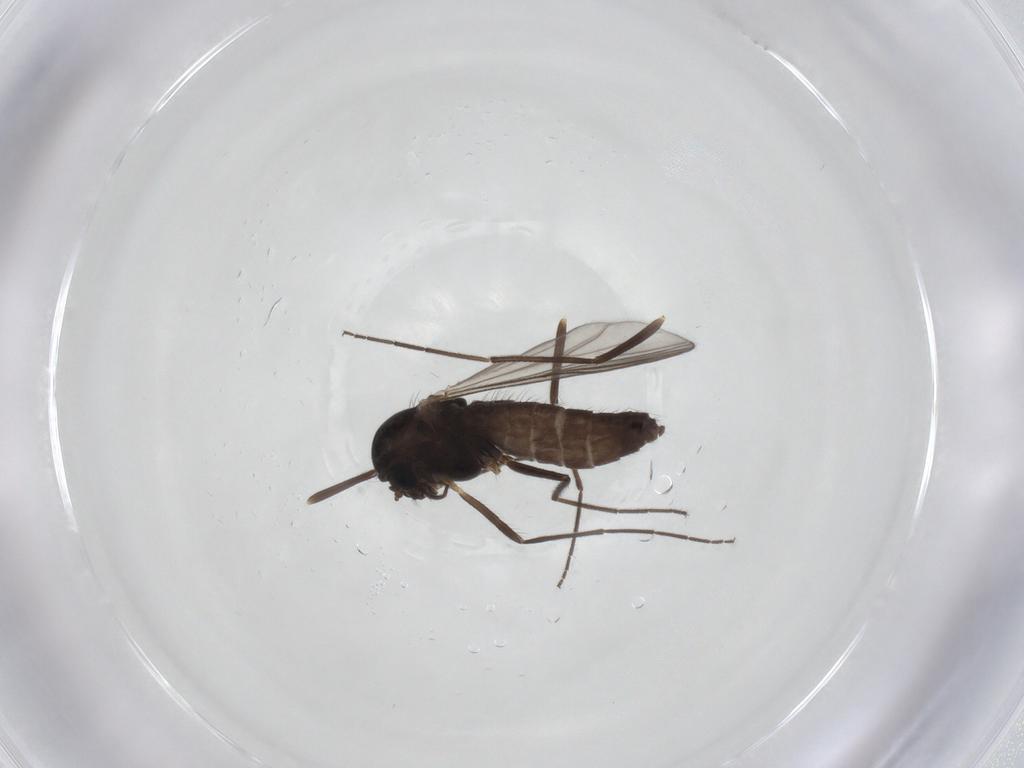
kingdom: Animalia
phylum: Arthropoda
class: Insecta
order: Diptera
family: Chironomidae
